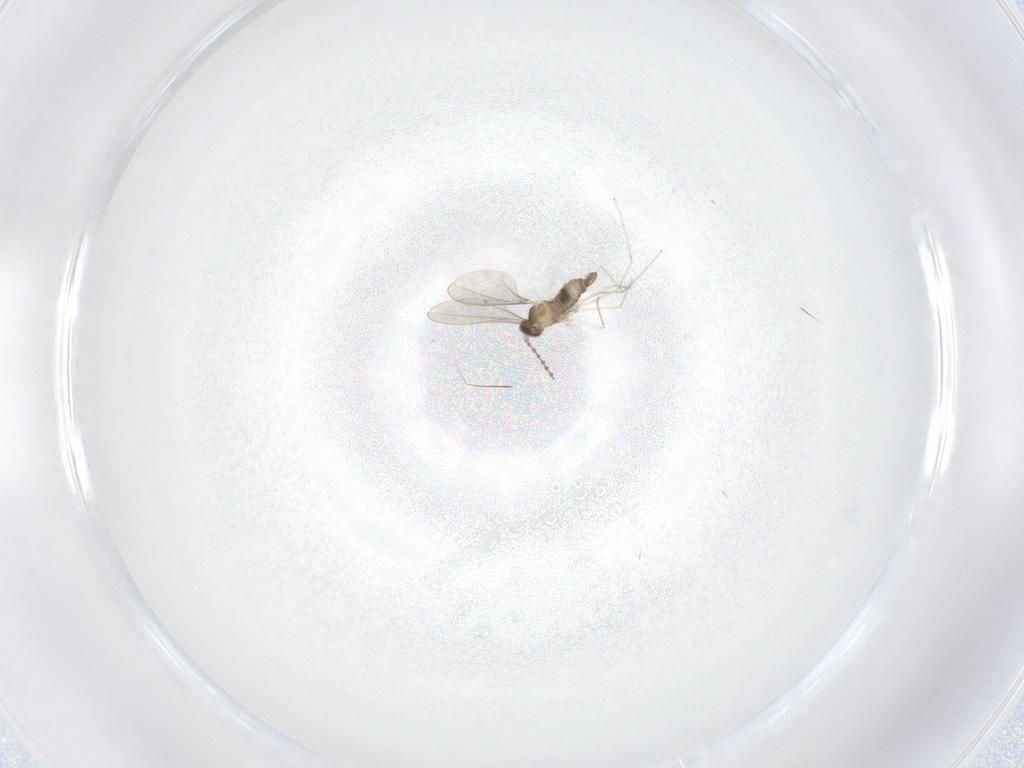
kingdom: Animalia
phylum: Arthropoda
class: Insecta
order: Diptera
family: Cecidomyiidae
